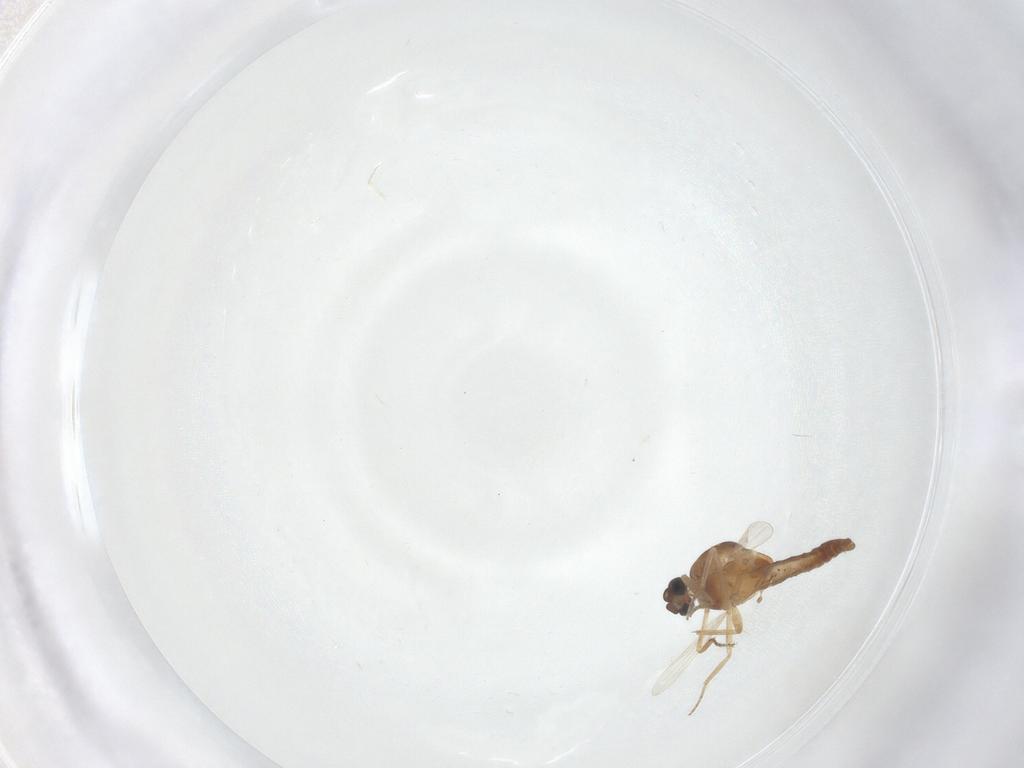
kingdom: Animalia
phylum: Arthropoda
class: Insecta
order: Diptera
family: Ceratopogonidae
